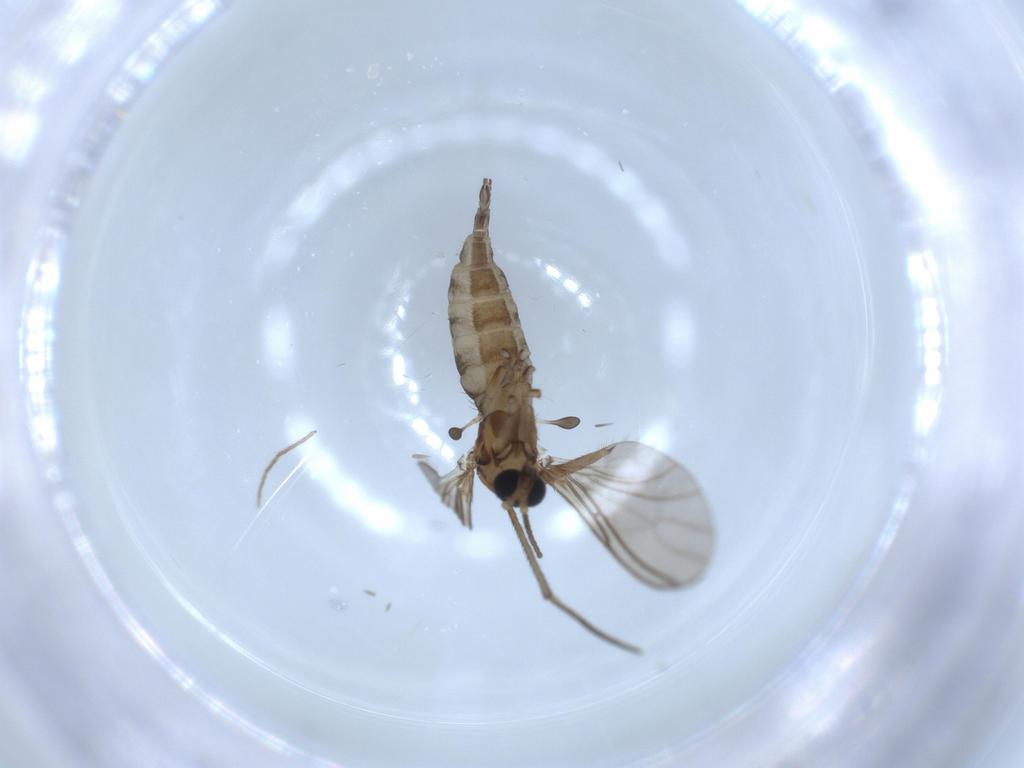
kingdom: Animalia
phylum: Arthropoda
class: Insecta
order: Diptera
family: Sciaridae
